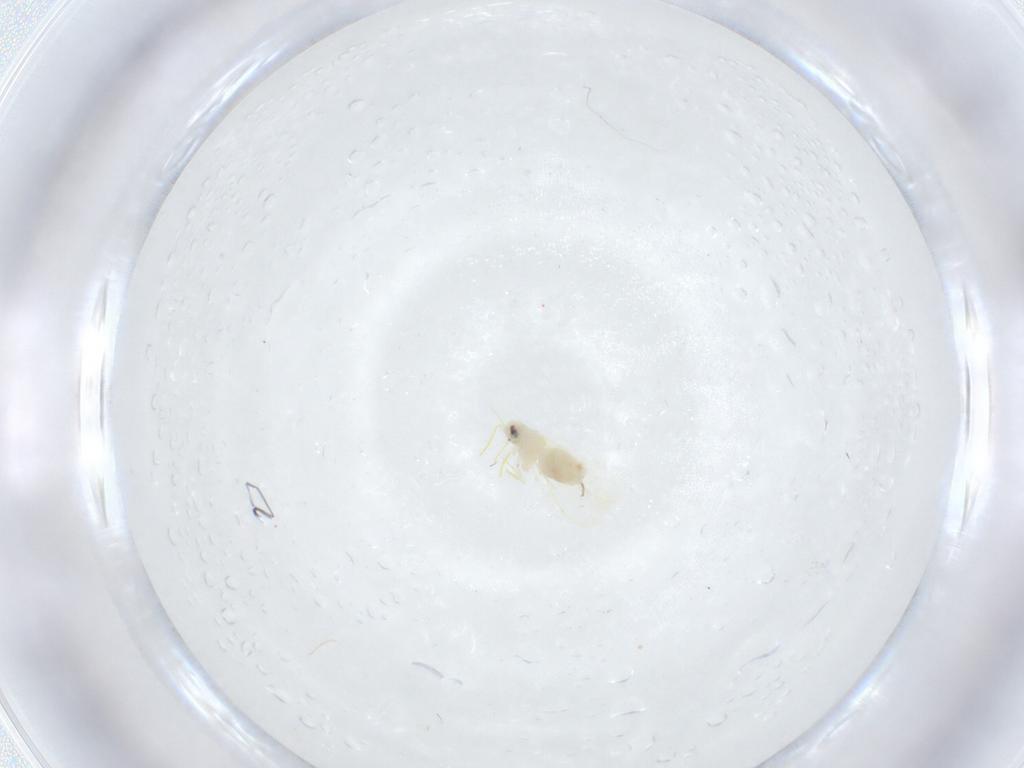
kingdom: Animalia
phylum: Arthropoda
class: Insecta
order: Hemiptera
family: Aleyrodidae
